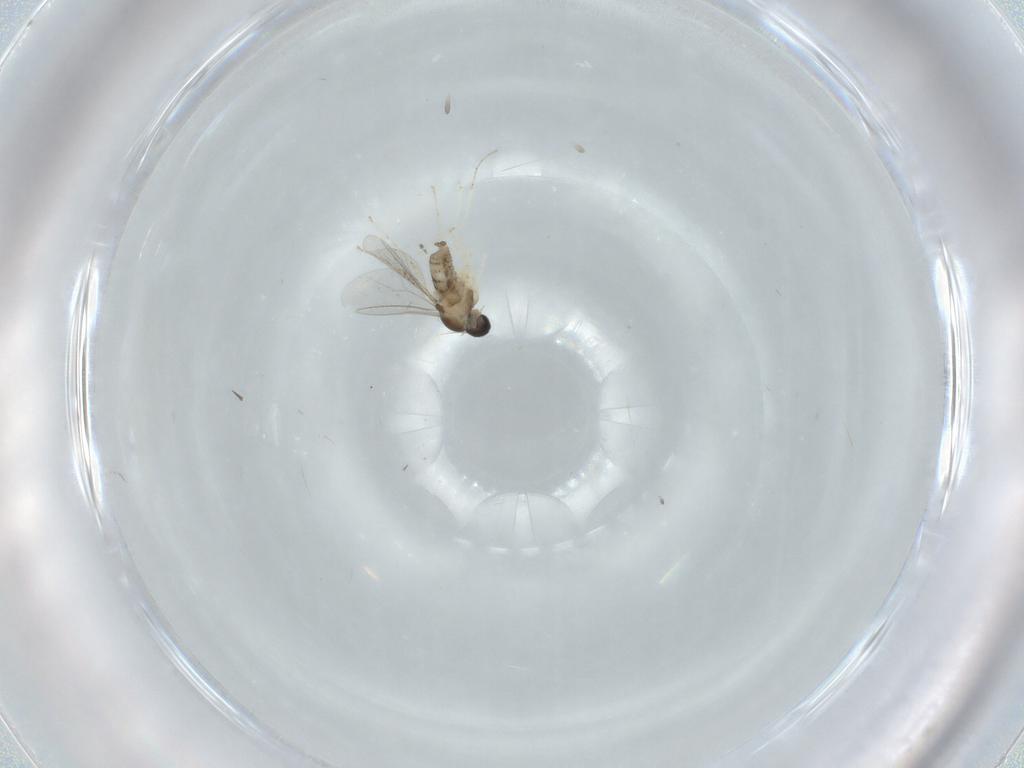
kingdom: Animalia
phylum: Arthropoda
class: Insecta
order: Diptera
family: Cecidomyiidae
